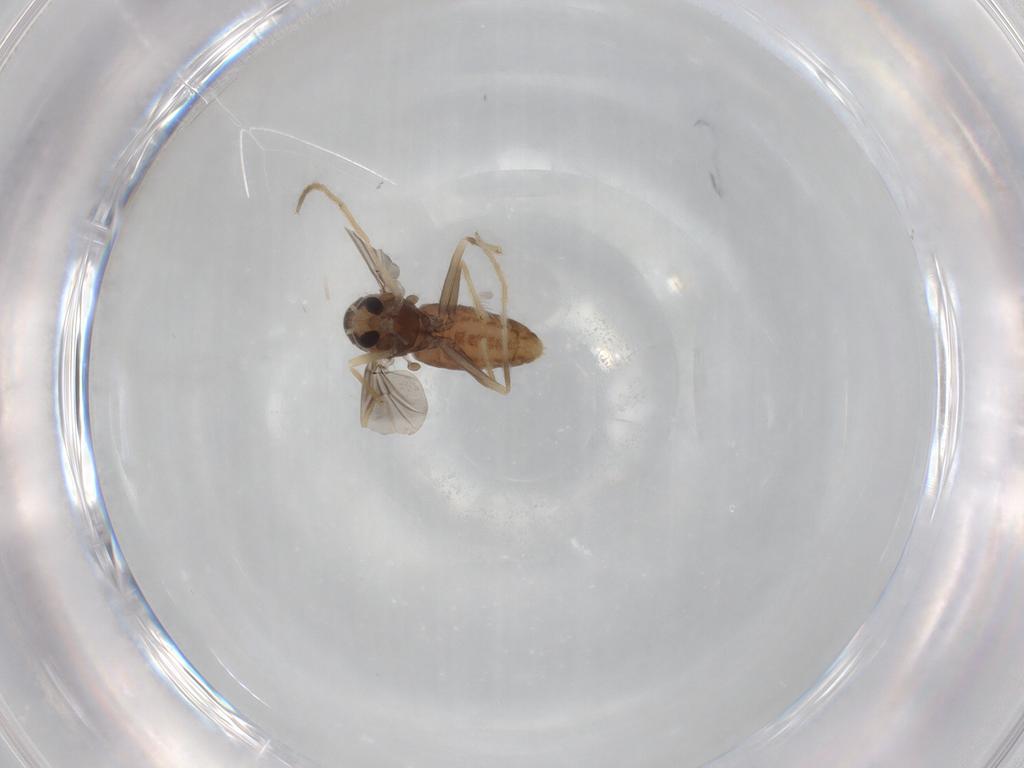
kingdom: Animalia
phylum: Arthropoda
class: Insecta
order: Diptera
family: Chironomidae
